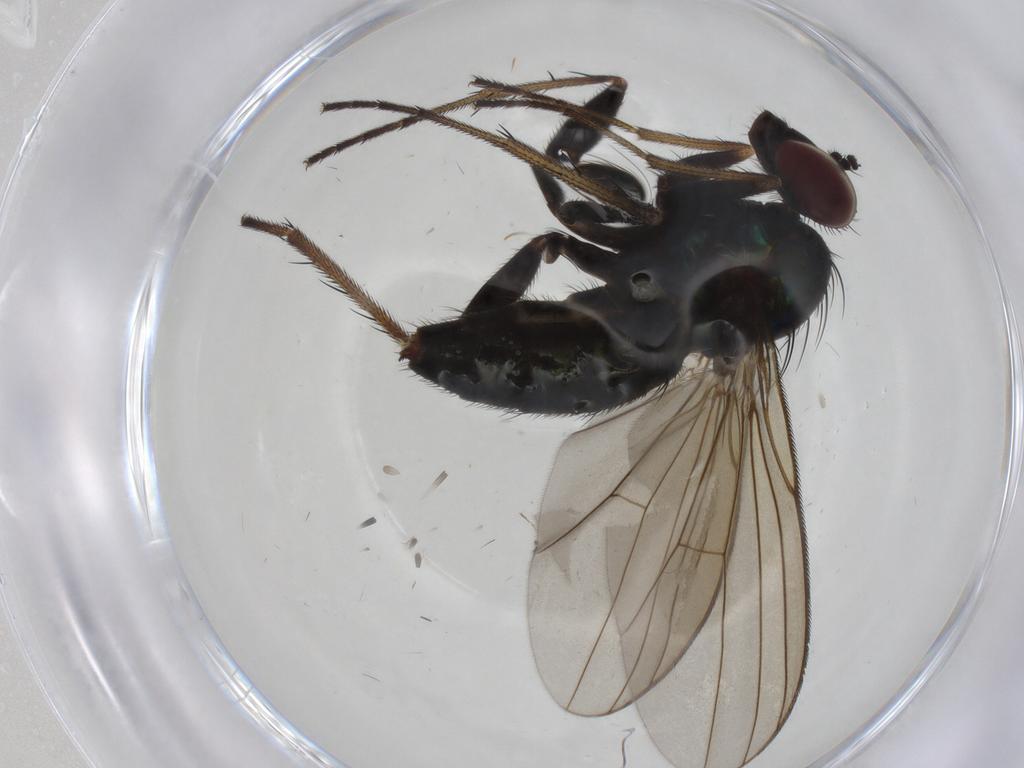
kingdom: Animalia
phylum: Arthropoda
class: Insecta
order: Diptera
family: Dolichopodidae
